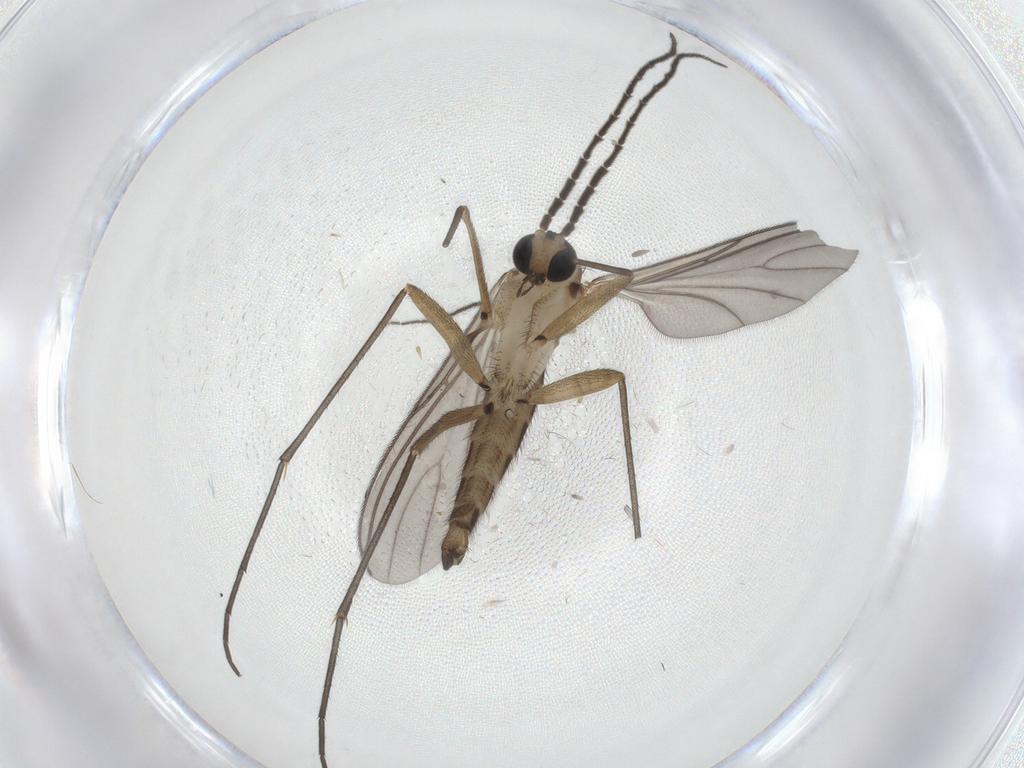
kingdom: Animalia
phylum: Arthropoda
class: Insecta
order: Diptera
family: Sciaridae
